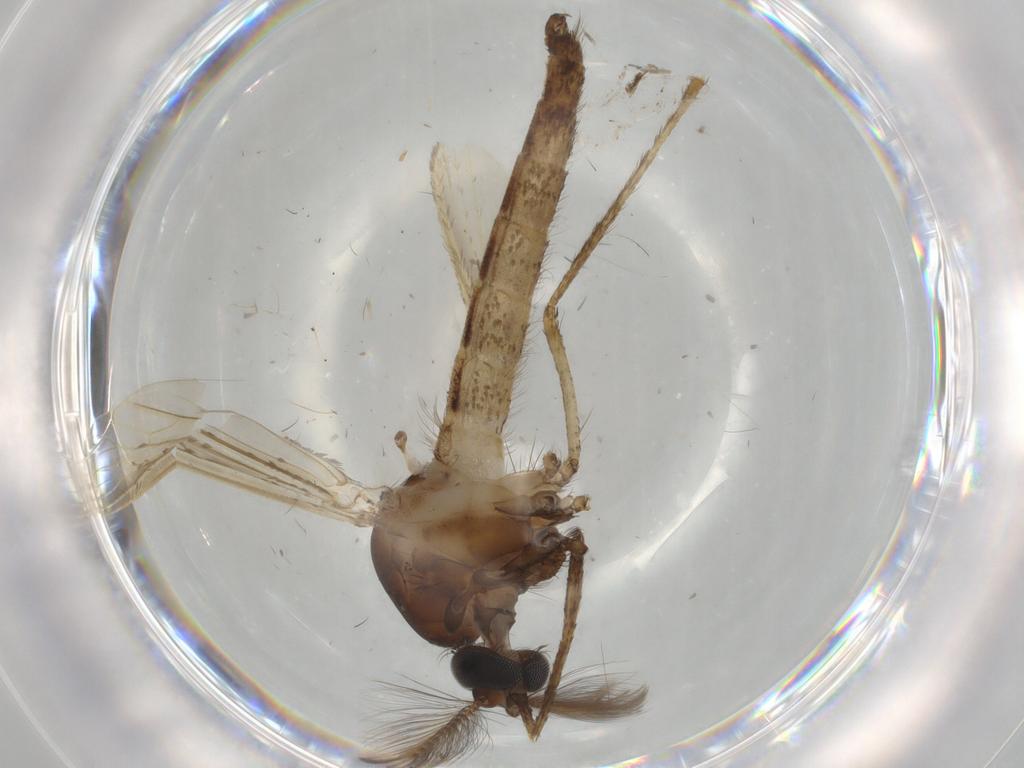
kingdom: Animalia
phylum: Arthropoda
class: Insecta
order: Diptera
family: Chironomidae
